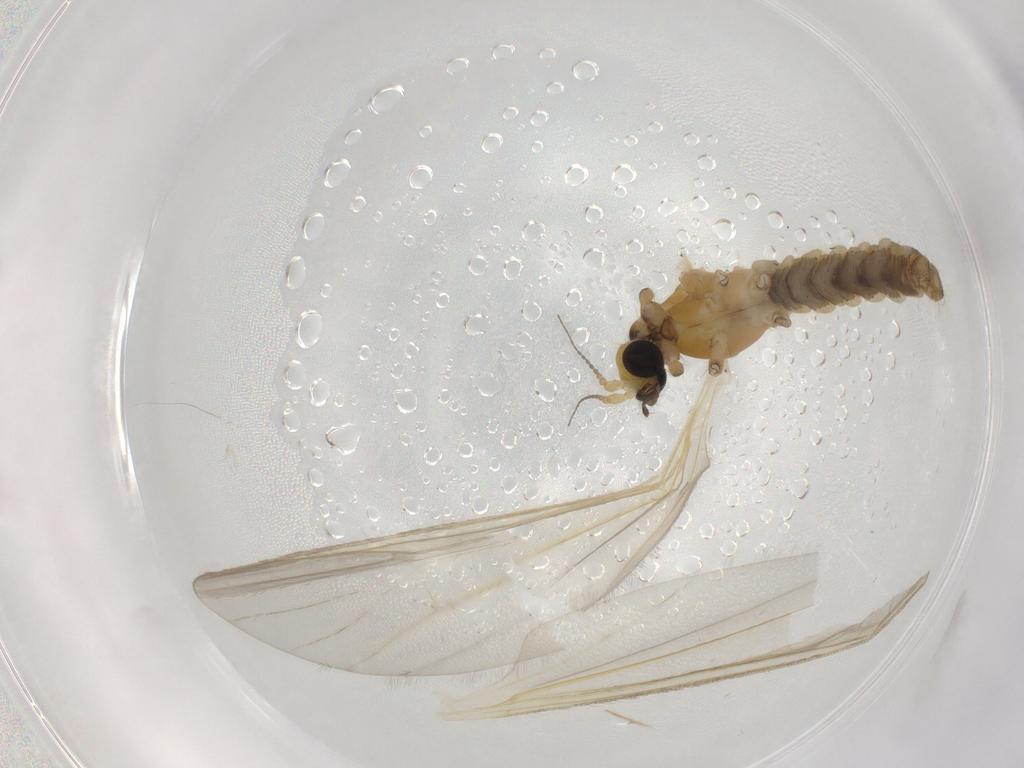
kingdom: Animalia
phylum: Arthropoda
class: Insecta
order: Diptera
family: Cecidomyiidae
